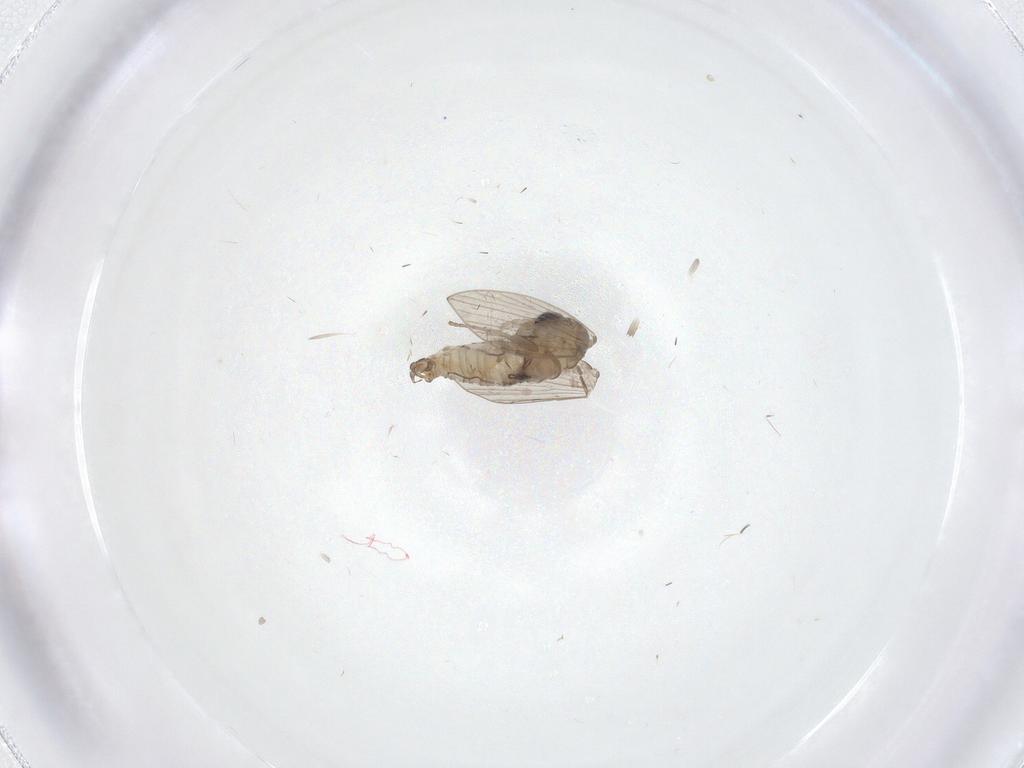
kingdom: Animalia
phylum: Arthropoda
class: Insecta
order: Diptera
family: Psychodidae
